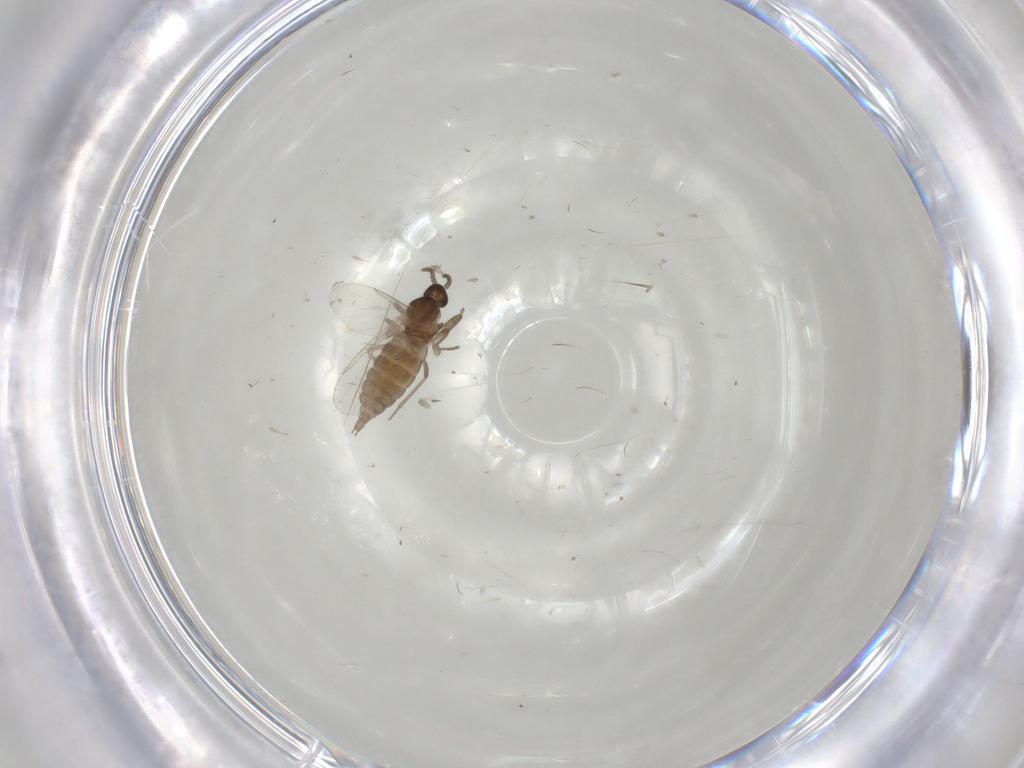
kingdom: Animalia
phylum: Arthropoda
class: Insecta
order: Diptera
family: Cecidomyiidae
